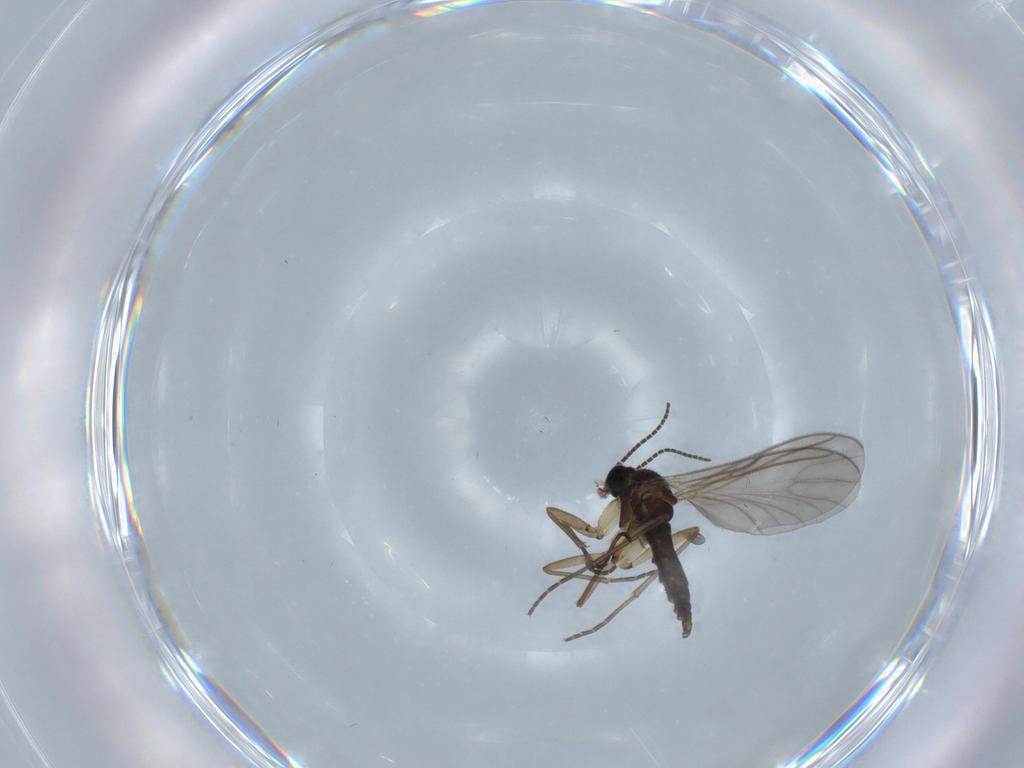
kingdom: Animalia
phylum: Arthropoda
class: Insecta
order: Diptera
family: Sciaridae
